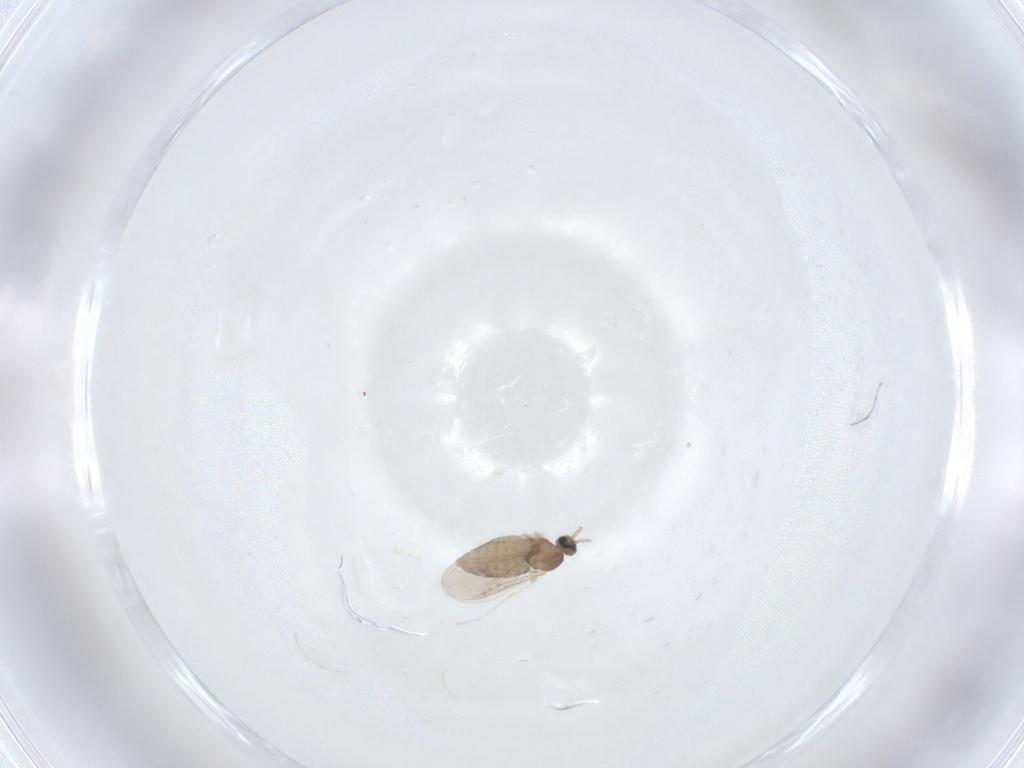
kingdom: Animalia
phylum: Arthropoda
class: Insecta
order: Diptera
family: Cecidomyiidae
